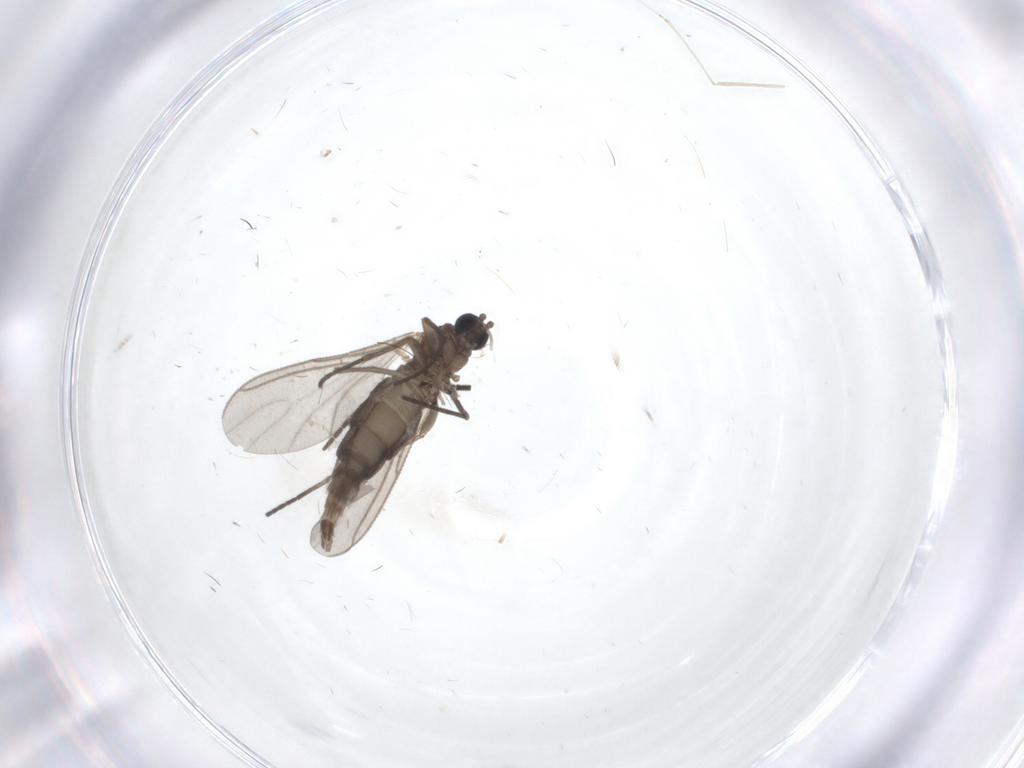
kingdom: Animalia
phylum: Arthropoda
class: Insecta
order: Diptera
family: Sciaridae
